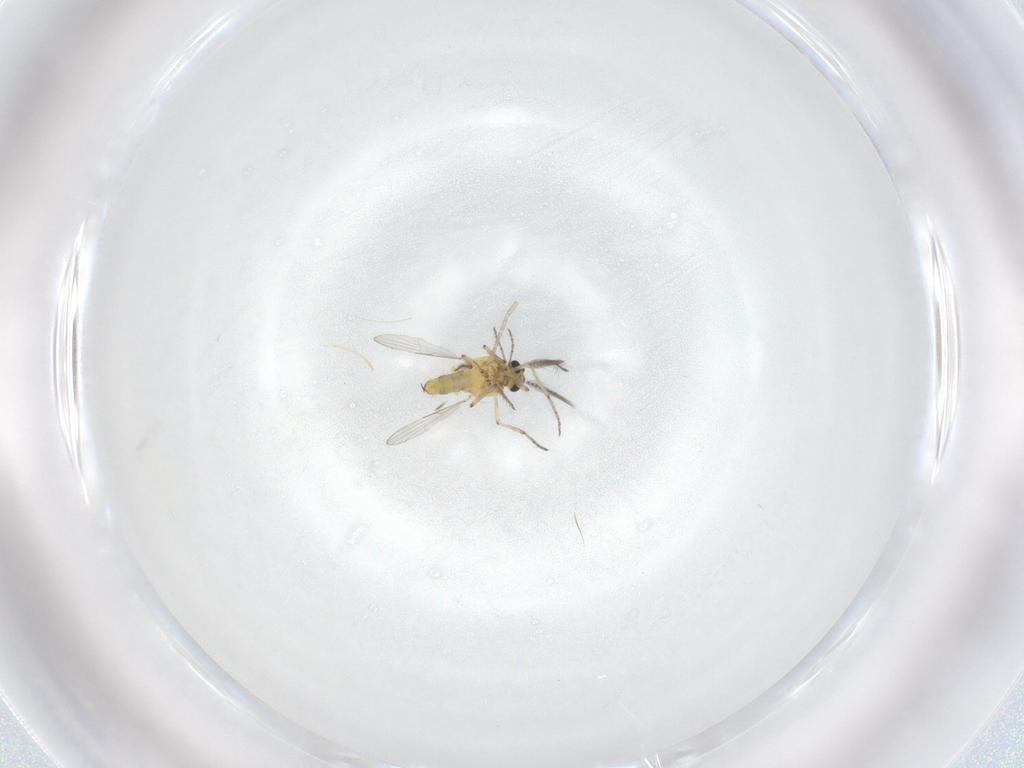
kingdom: Animalia
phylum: Arthropoda
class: Insecta
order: Diptera
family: Ceratopogonidae
